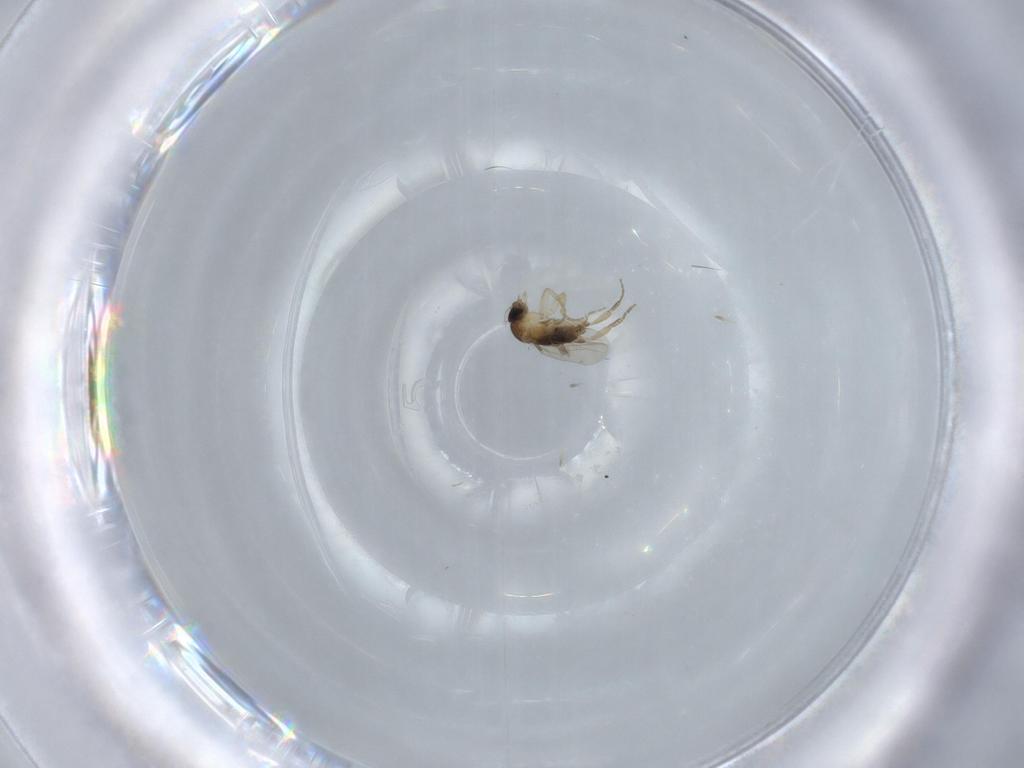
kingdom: Animalia
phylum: Arthropoda
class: Insecta
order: Diptera
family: Phoridae
